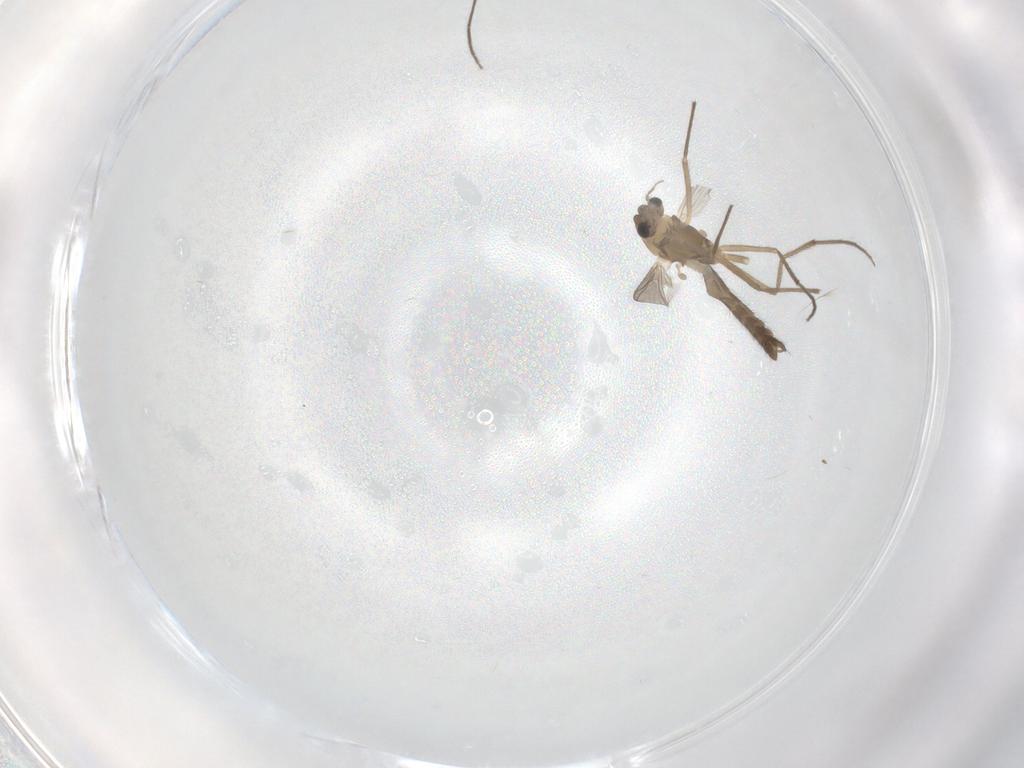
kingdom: Animalia
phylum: Arthropoda
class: Insecta
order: Diptera
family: Chironomidae
